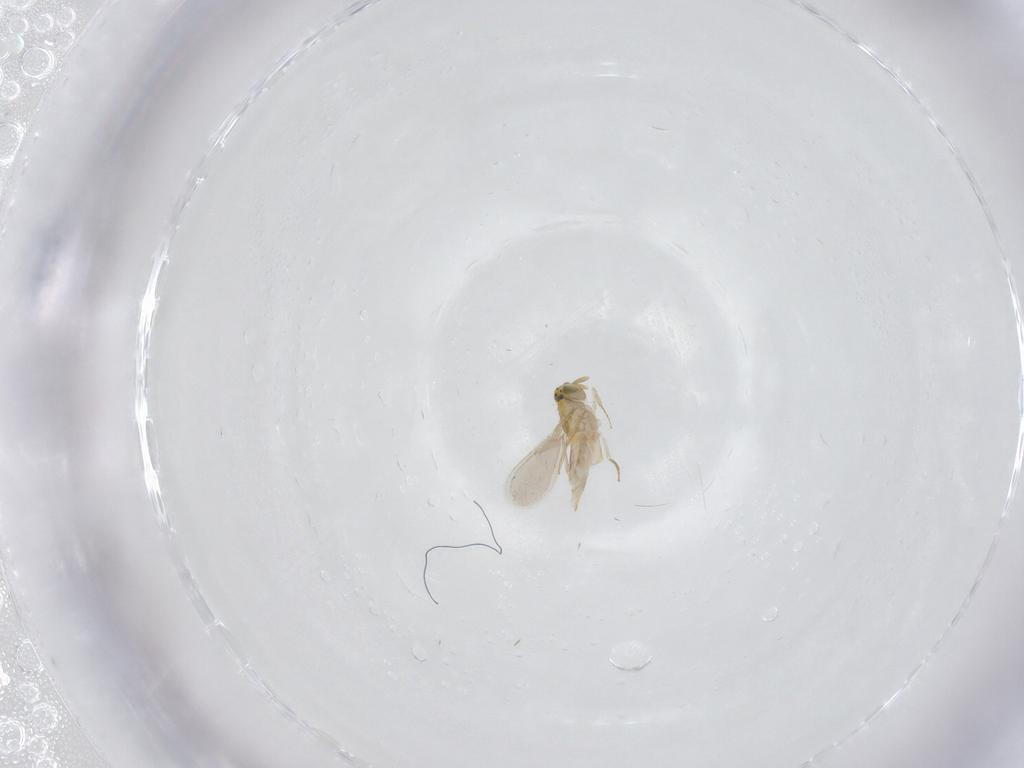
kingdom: Animalia
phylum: Arthropoda
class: Insecta
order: Hymenoptera
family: Aphelinidae
